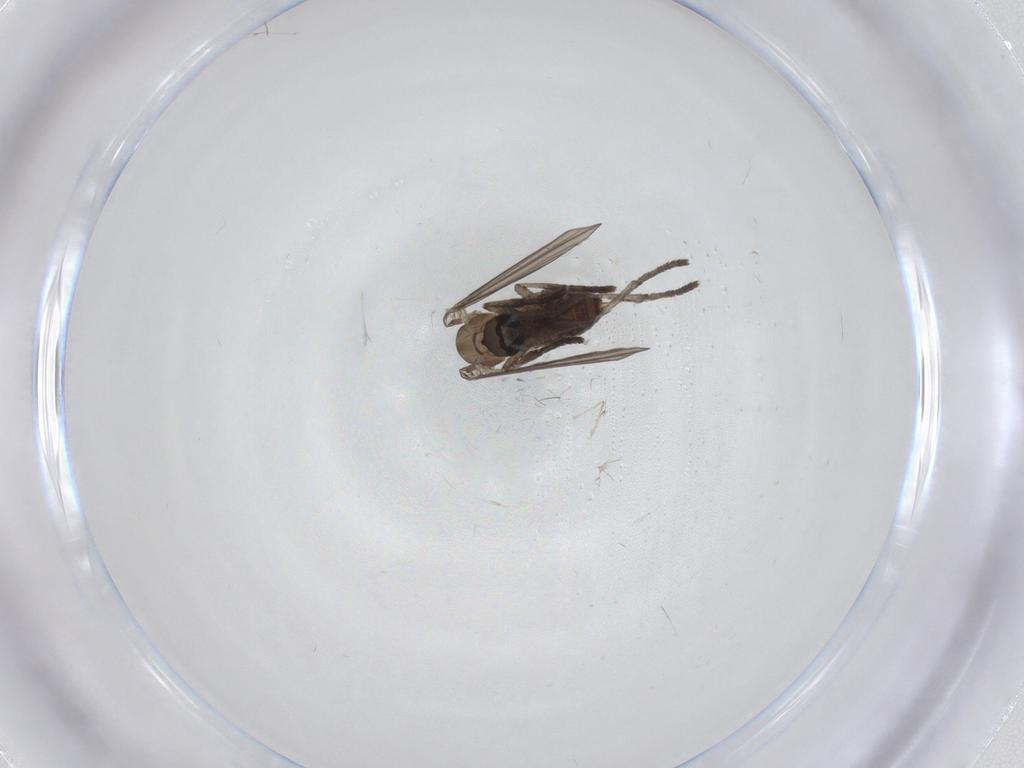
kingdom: Animalia
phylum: Arthropoda
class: Insecta
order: Diptera
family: Psychodidae
